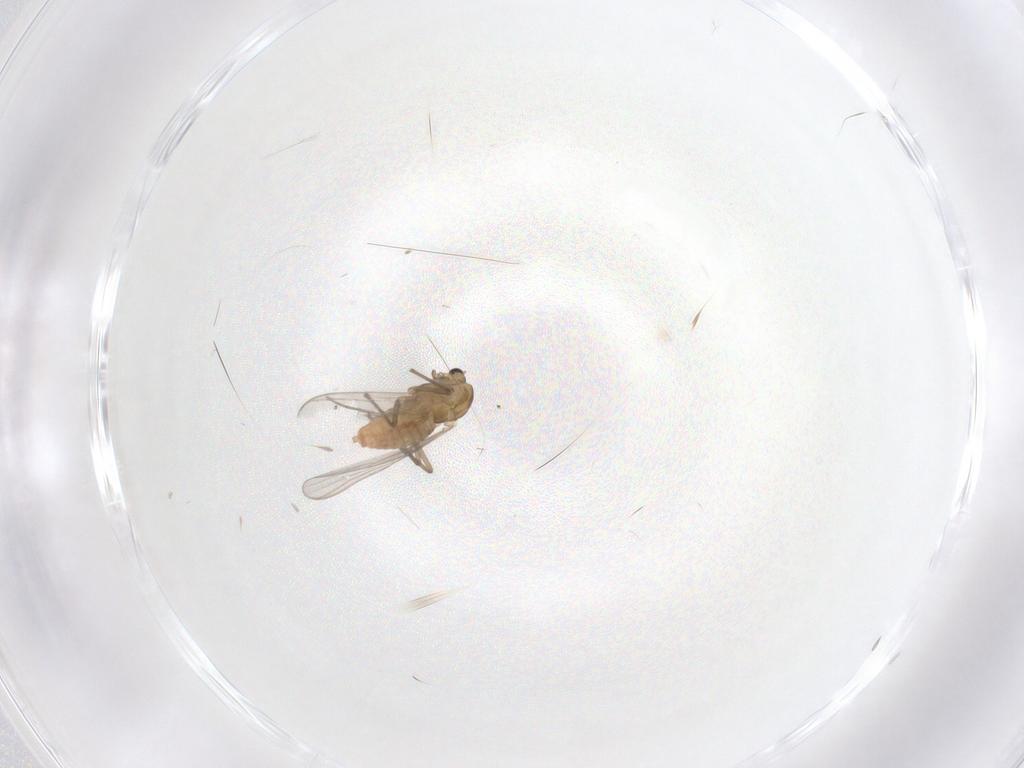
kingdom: Animalia
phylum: Arthropoda
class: Insecta
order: Diptera
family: Chironomidae
